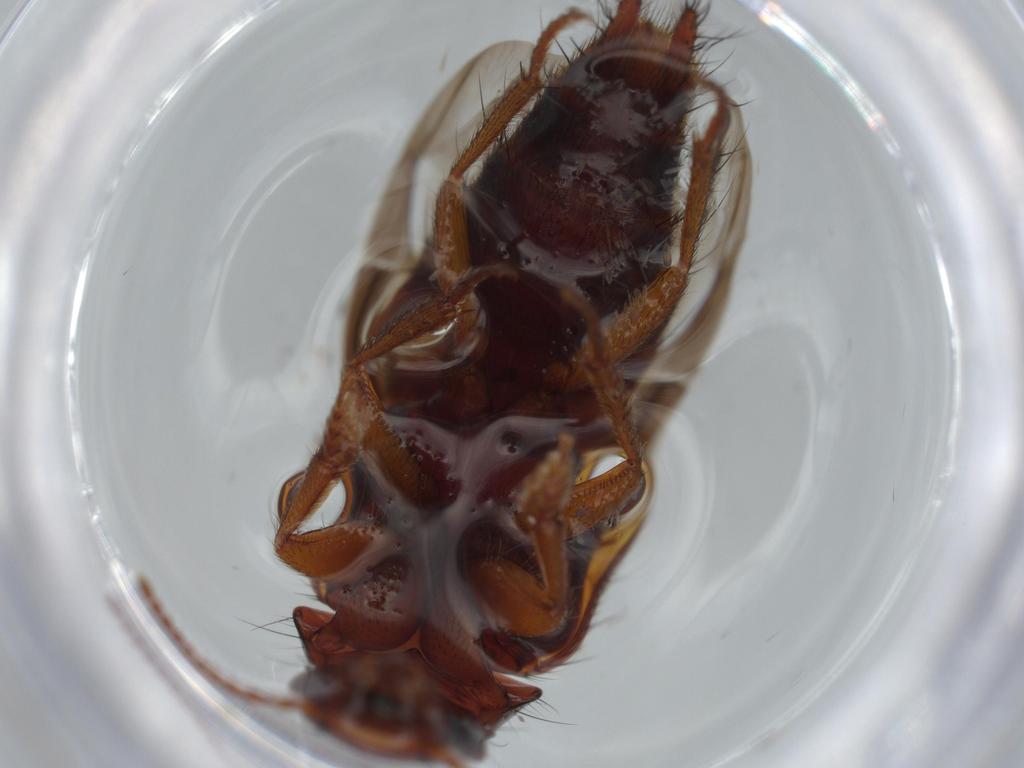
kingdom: Animalia
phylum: Arthropoda
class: Insecta
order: Coleoptera
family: Staphylinidae
